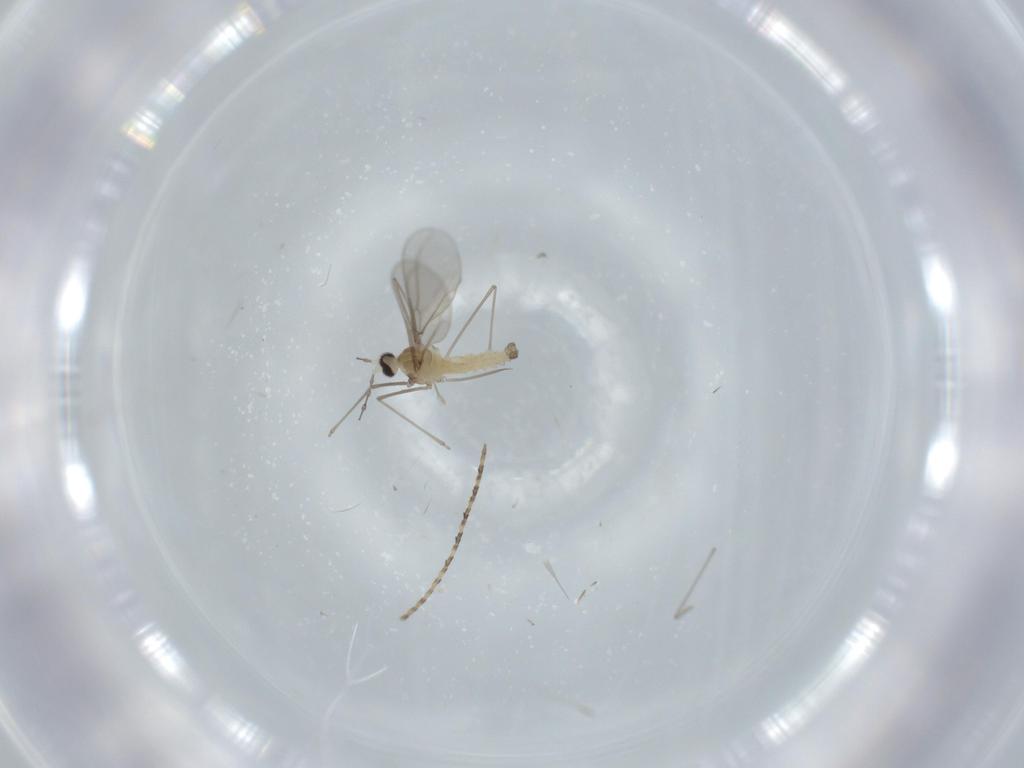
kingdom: Animalia
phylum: Arthropoda
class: Insecta
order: Diptera
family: Cecidomyiidae
